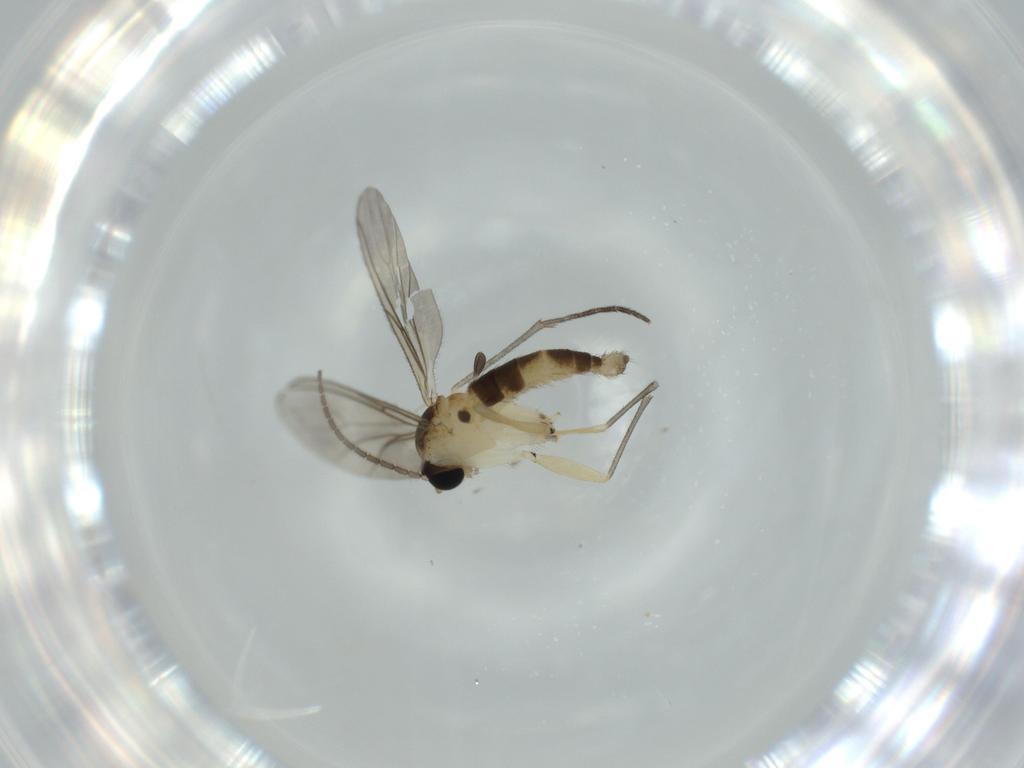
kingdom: Animalia
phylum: Arthropoda
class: Insecta
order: Diptera
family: Sciaridae
